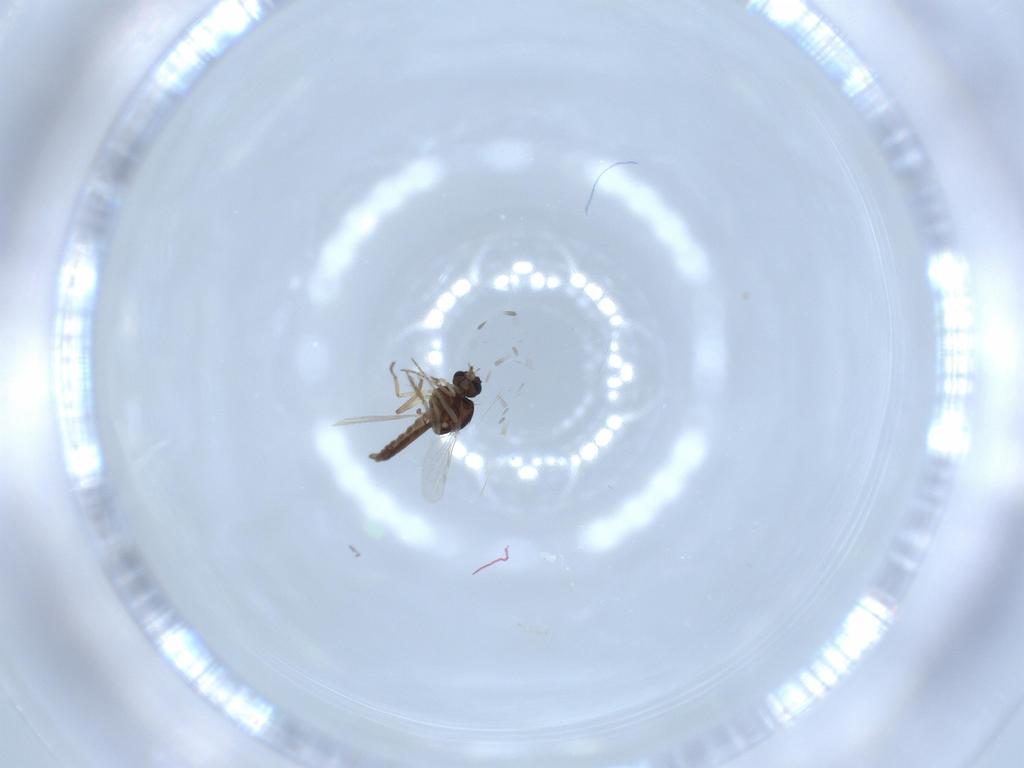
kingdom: Animalia
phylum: Arthropoda
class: Insecta
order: Diptera
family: Ceratopogonidae
